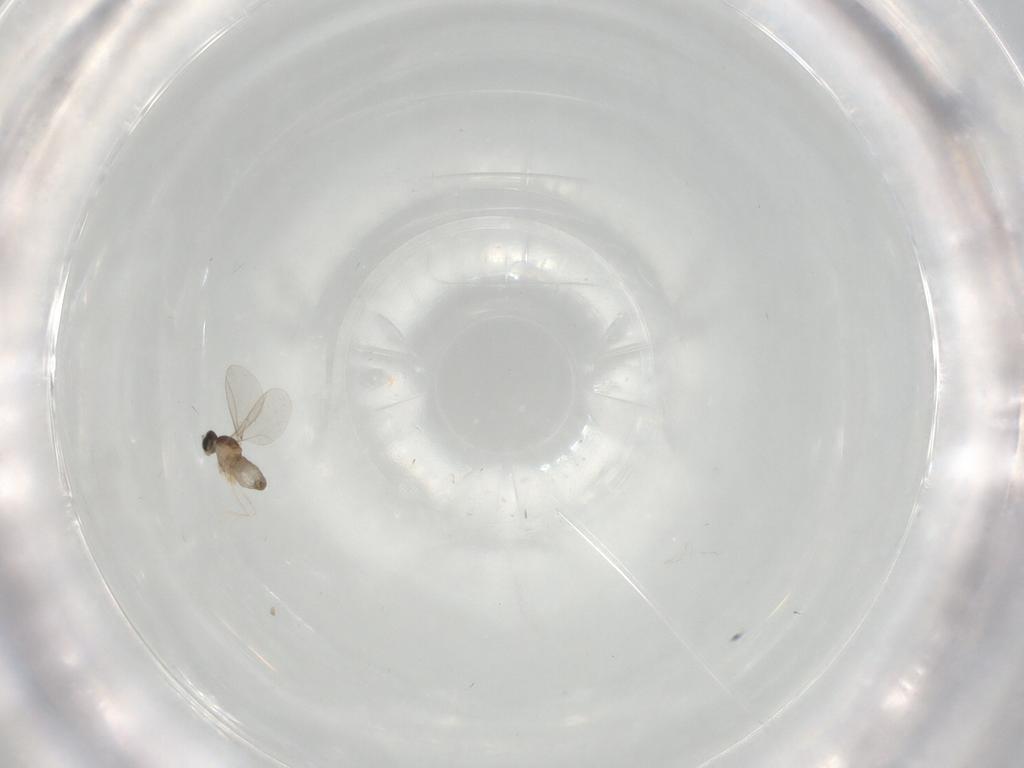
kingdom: Animalia
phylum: Arthropoda
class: Insecta
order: Diptera
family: Cecidomyiidae
